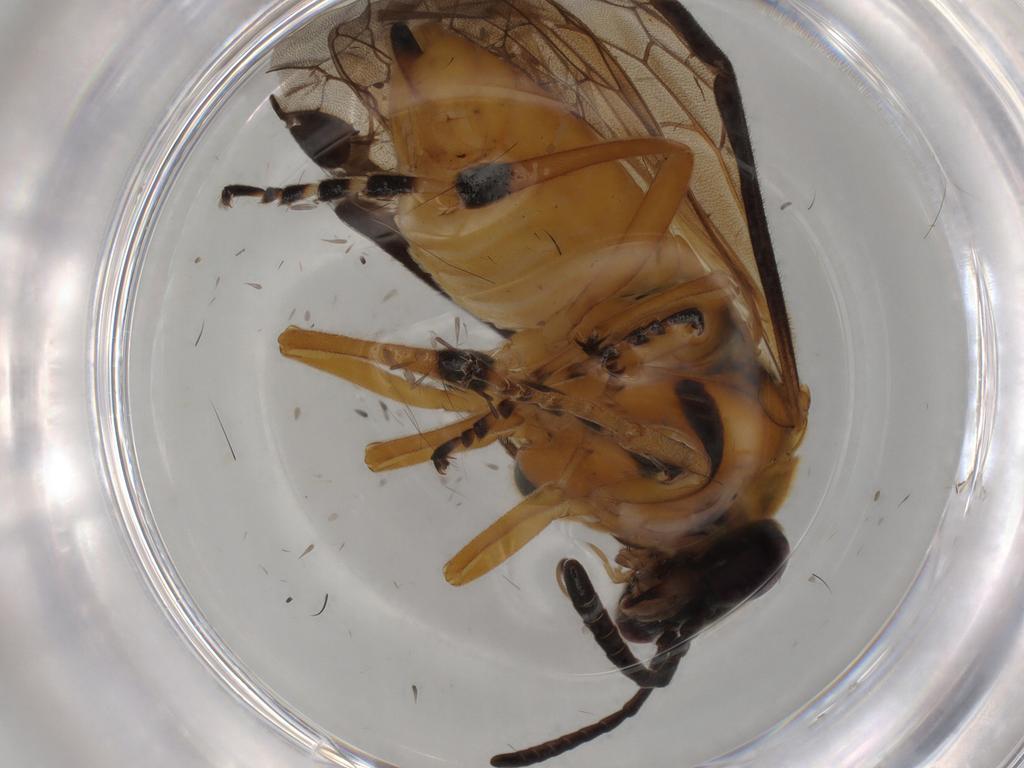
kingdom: Animalia
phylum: Arthropoda
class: Insecta
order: Hymenoptera
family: Tenthredinidae
